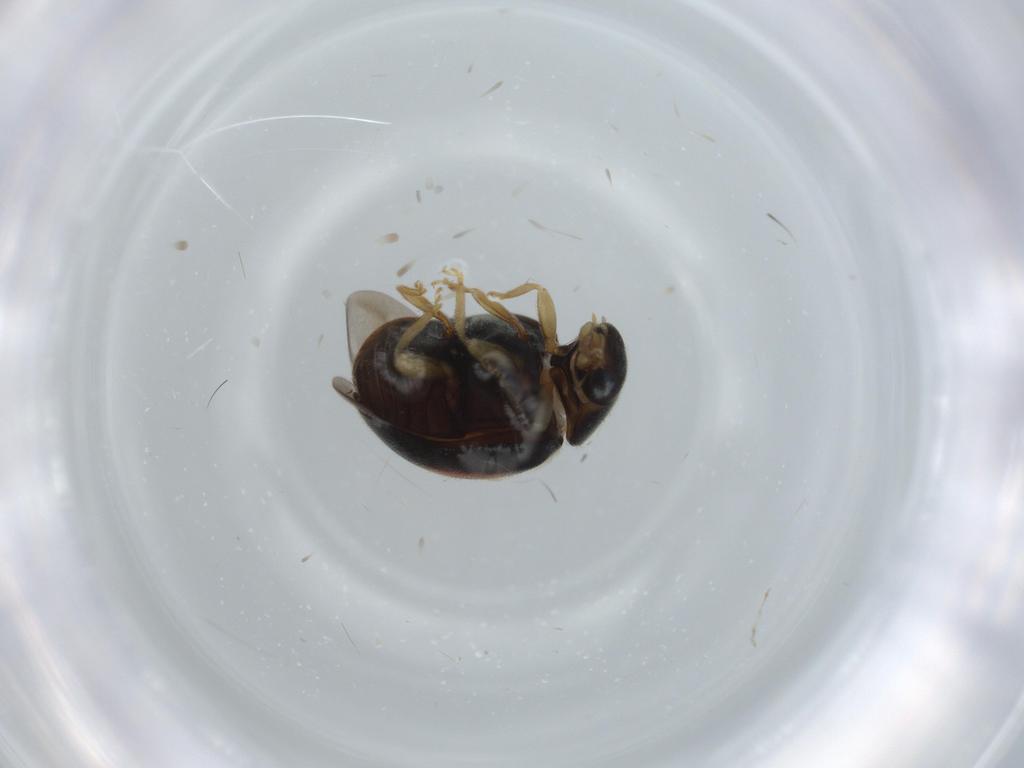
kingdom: Animalia
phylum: Arthropoda
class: Insecta
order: Coleoptera
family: Coccinellidae
